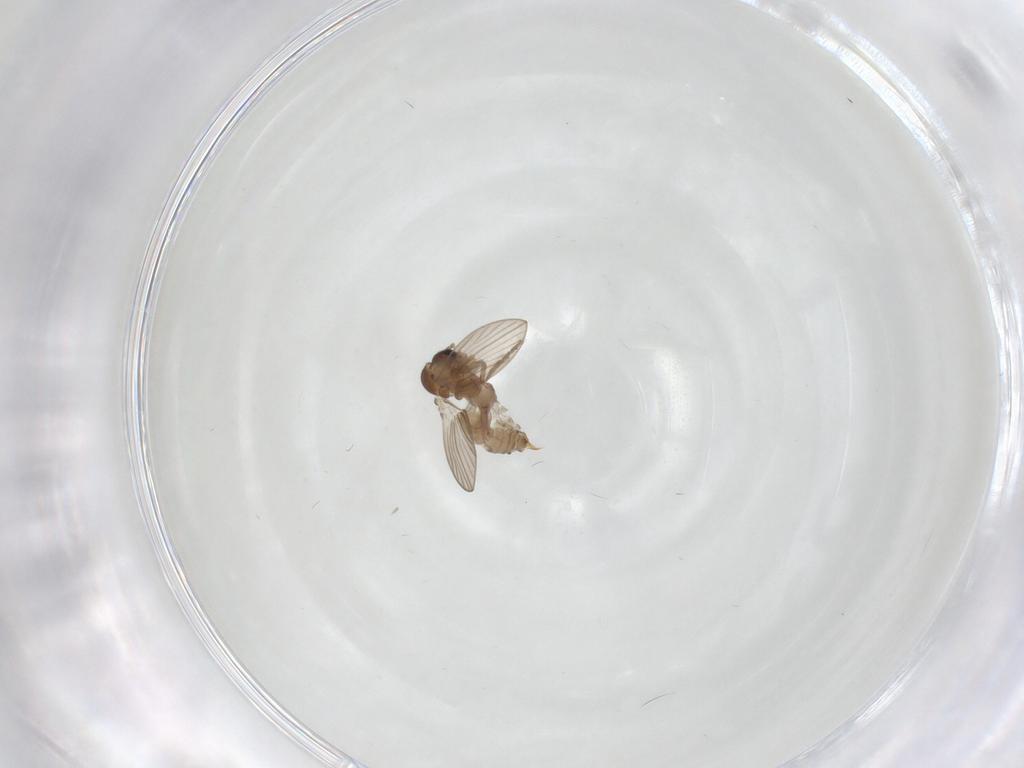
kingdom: Animalia
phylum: Arthropoda
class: Insecta
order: Diptera
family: Psychodidae
